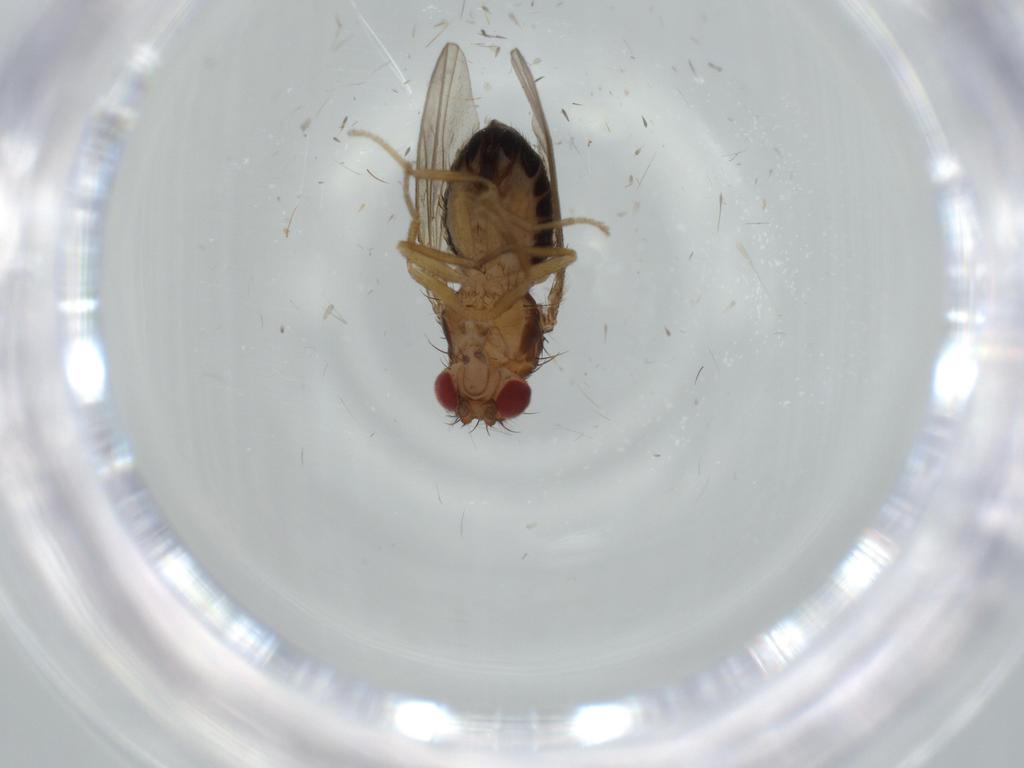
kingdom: Animalia
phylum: Arthropoda
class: Insecta
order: Diptera
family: Drosophilidae
